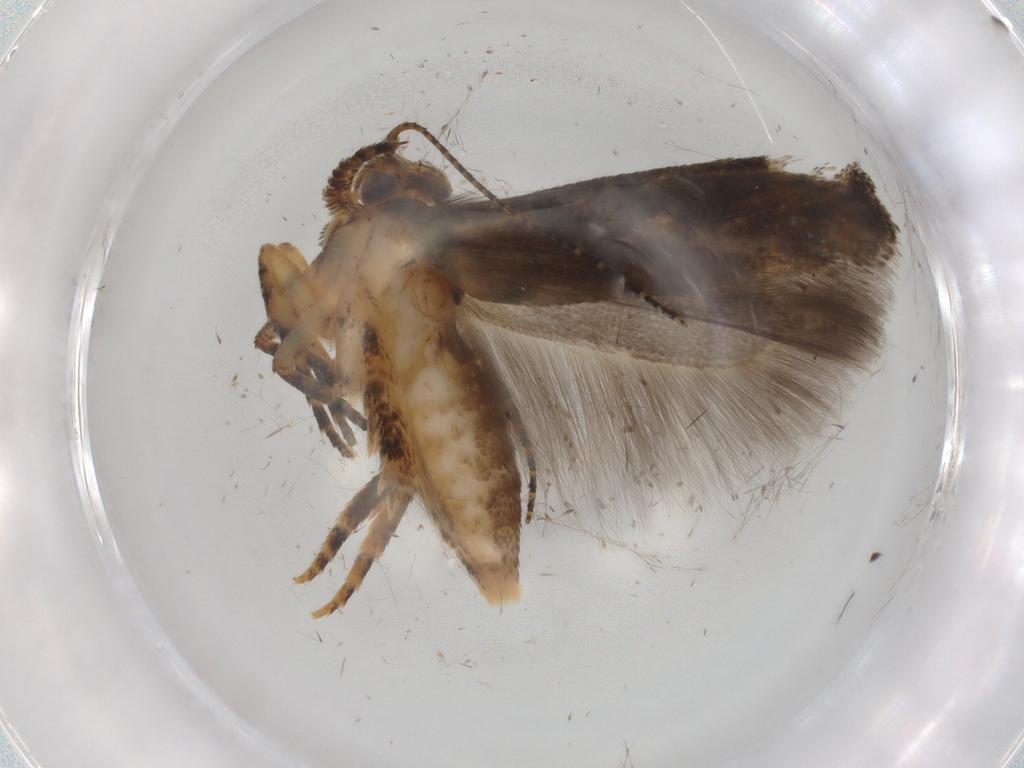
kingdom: Animalia
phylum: Arthropoda
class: Insecta
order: Lepidoptera
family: Gelechiidae
